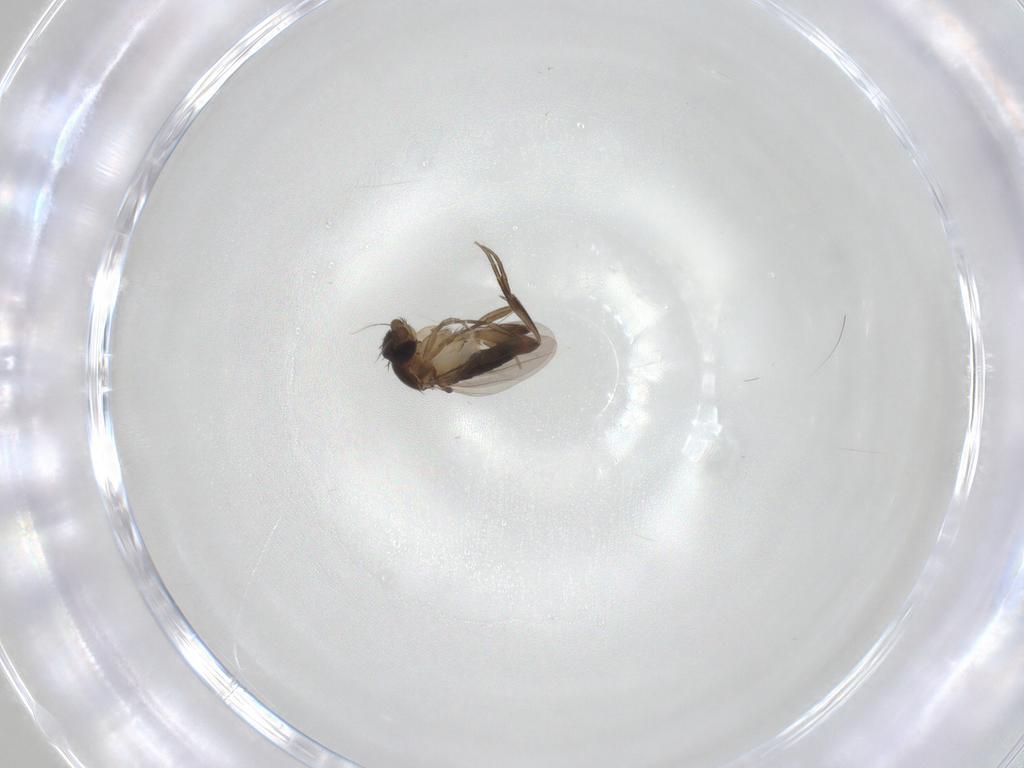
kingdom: Animalia
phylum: Arthropoda
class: Insecta
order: Diptera
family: Phoridae
